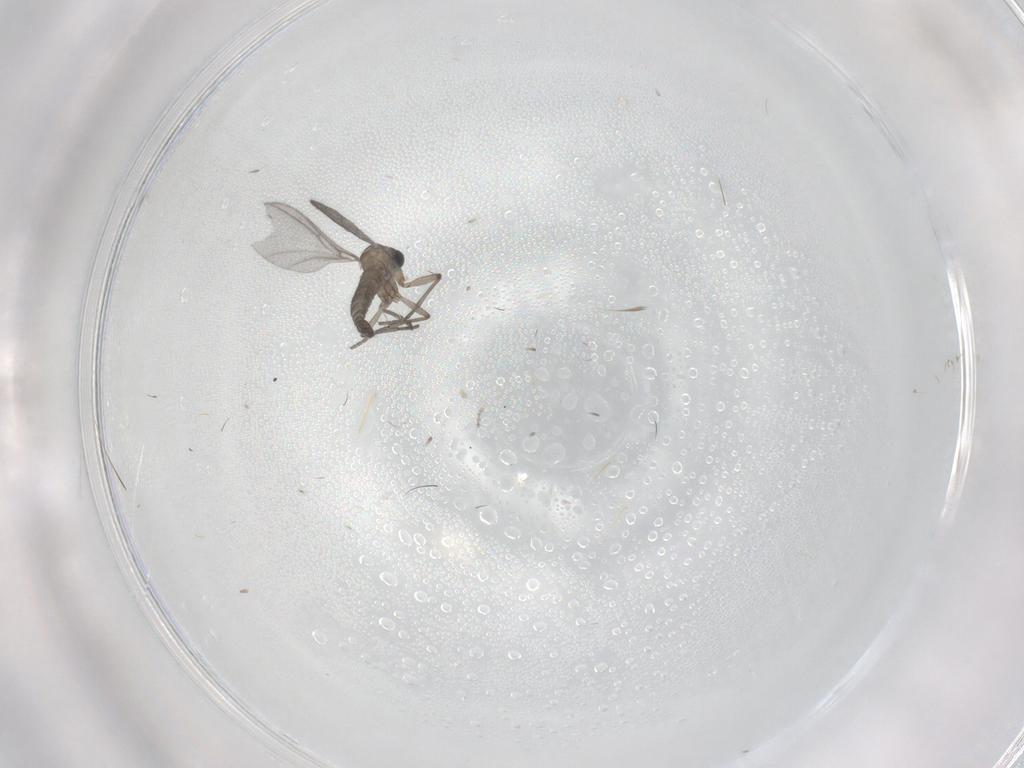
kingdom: Animalia
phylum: Arthropoda
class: Insecta
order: Diptera
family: Sciaridae
